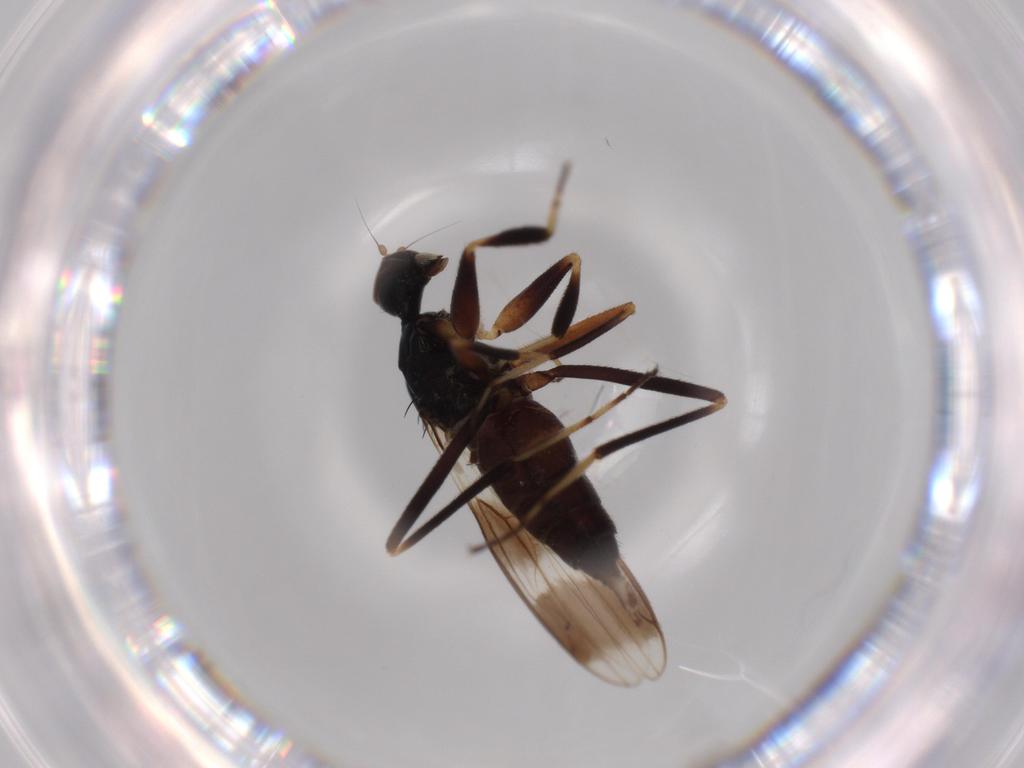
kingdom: Animalia
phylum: Arthropoda
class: Insecta
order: Diptera
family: Hybotidae
